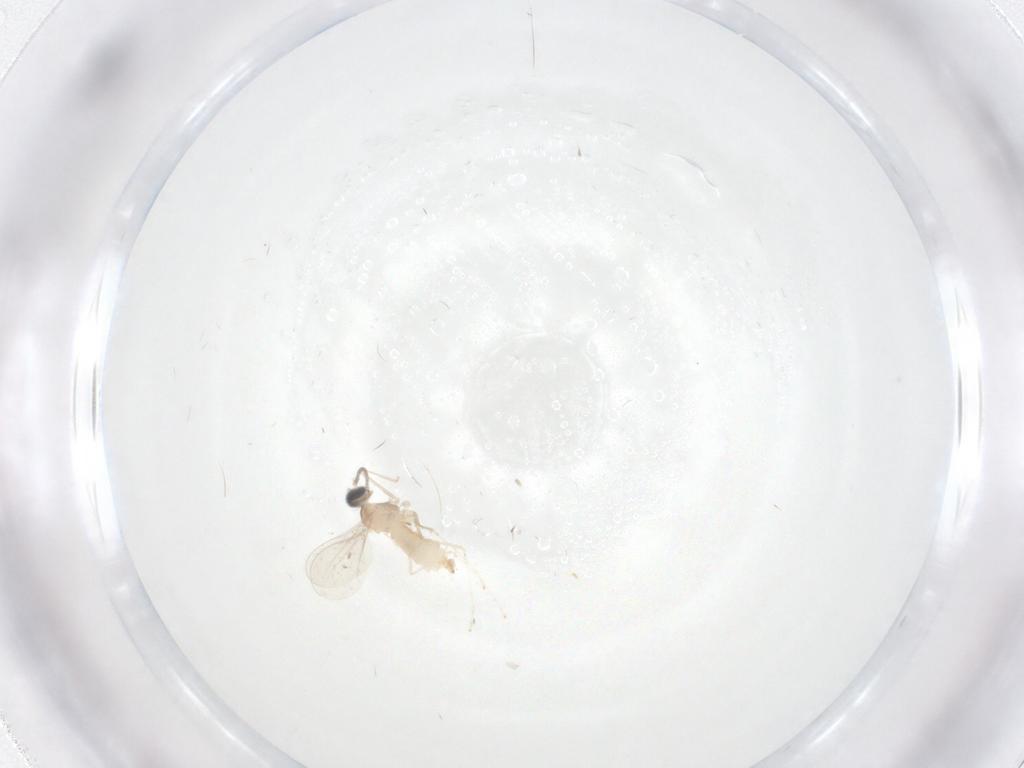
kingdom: Animalia
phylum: Arthropoda
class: Insecta
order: Diptera
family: Cecidomyiidae
